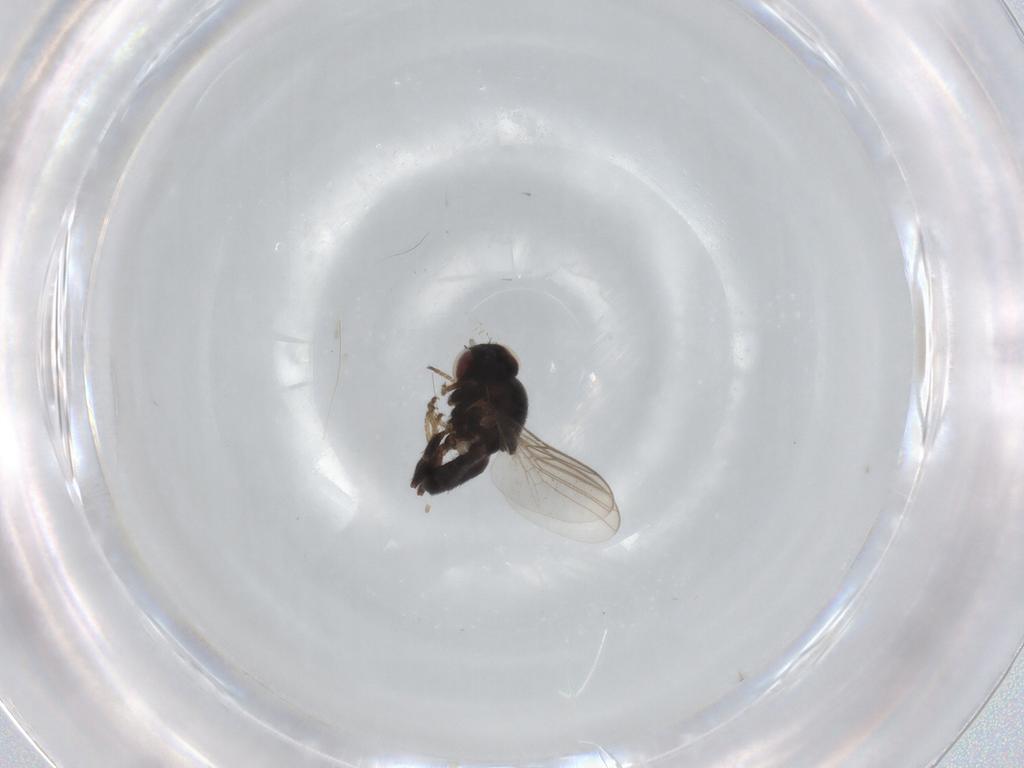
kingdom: Animalia
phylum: Arthropoda
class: Insecta
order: Diptera
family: Chloropidae
